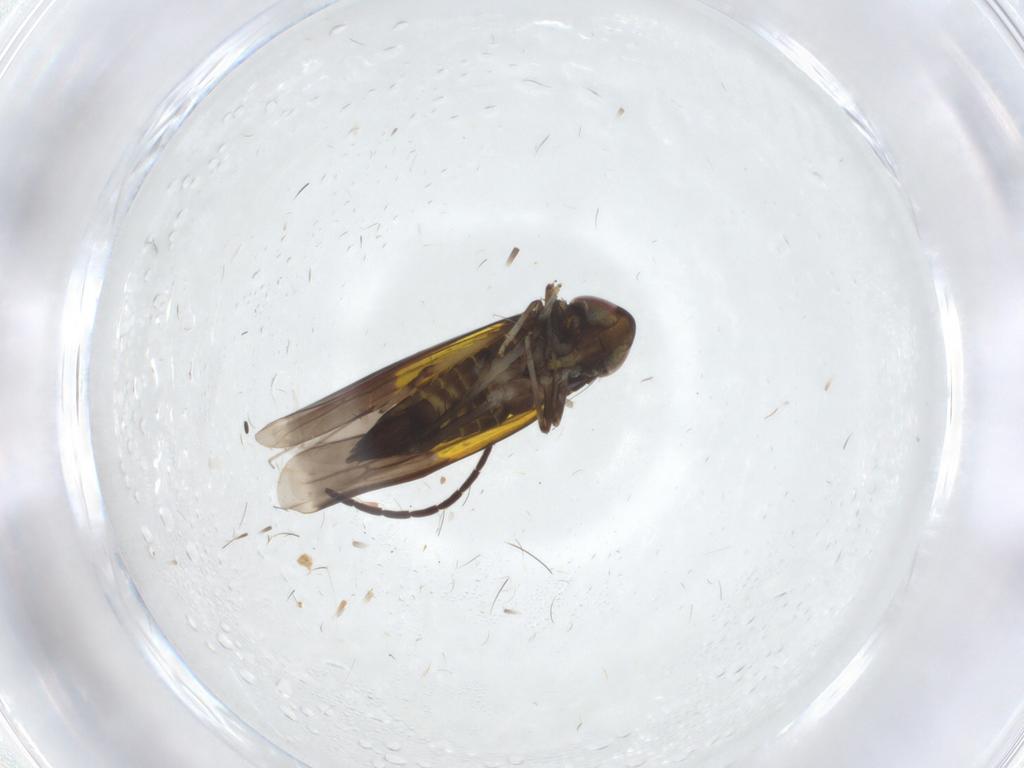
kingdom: Animalia
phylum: Arthropoda
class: Insecta
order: Hemiptera
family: Cicadellidae
